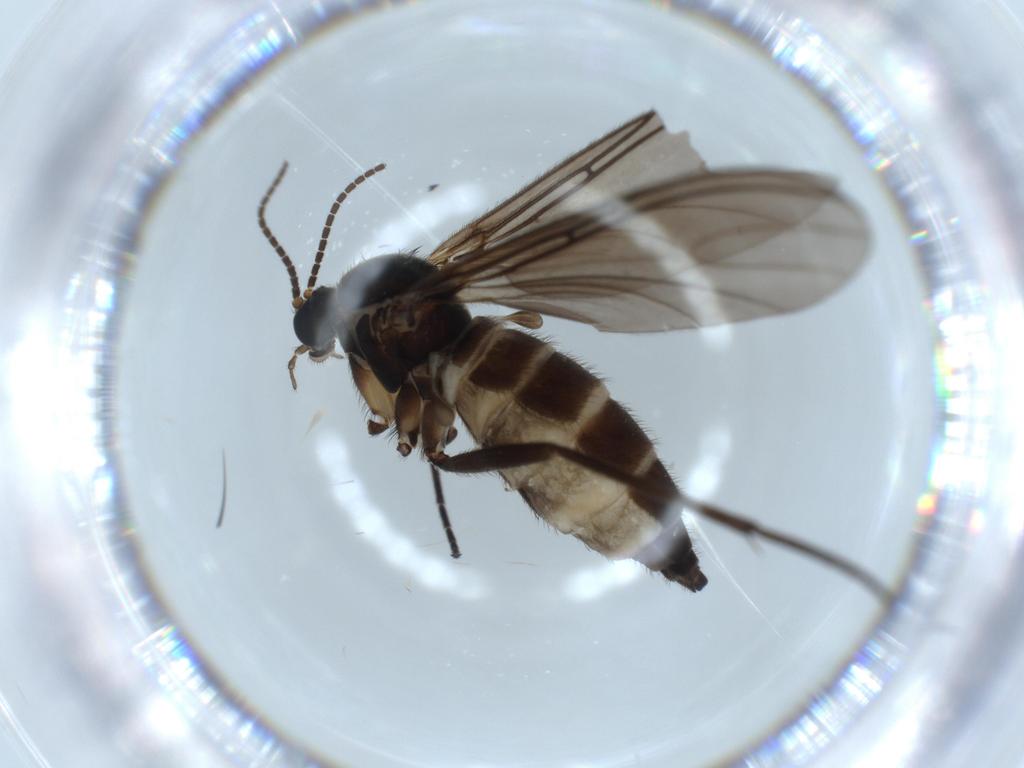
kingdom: Animalia
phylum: Arthropoda
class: Insecta
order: Diptera
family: Sciaridae
